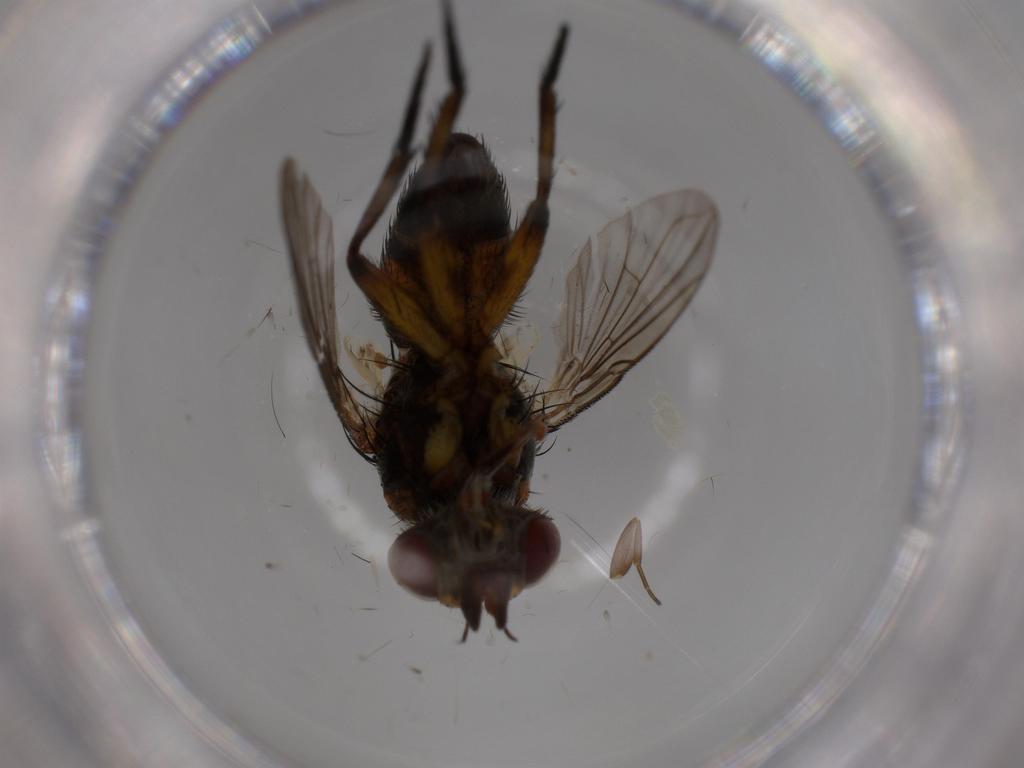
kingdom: Animalia
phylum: Arthropoda
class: Insecta
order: Diptera
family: Tachinidae
